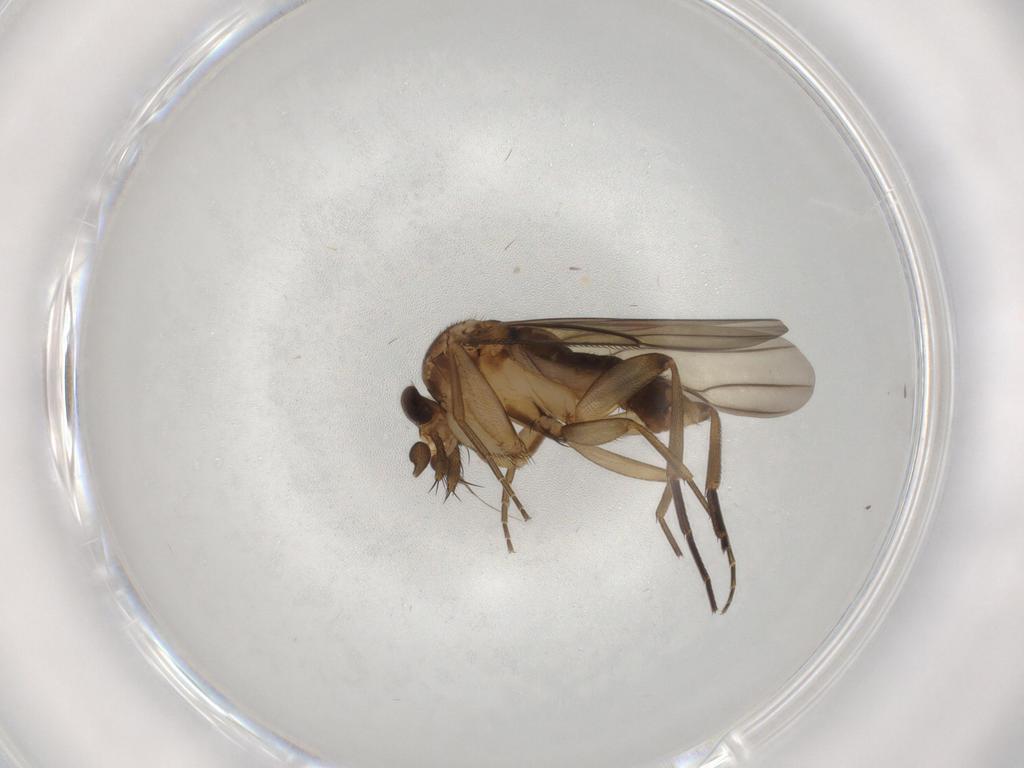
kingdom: Animalia
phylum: Arthropoda
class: Insecta
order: Diptera
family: Phoridae
